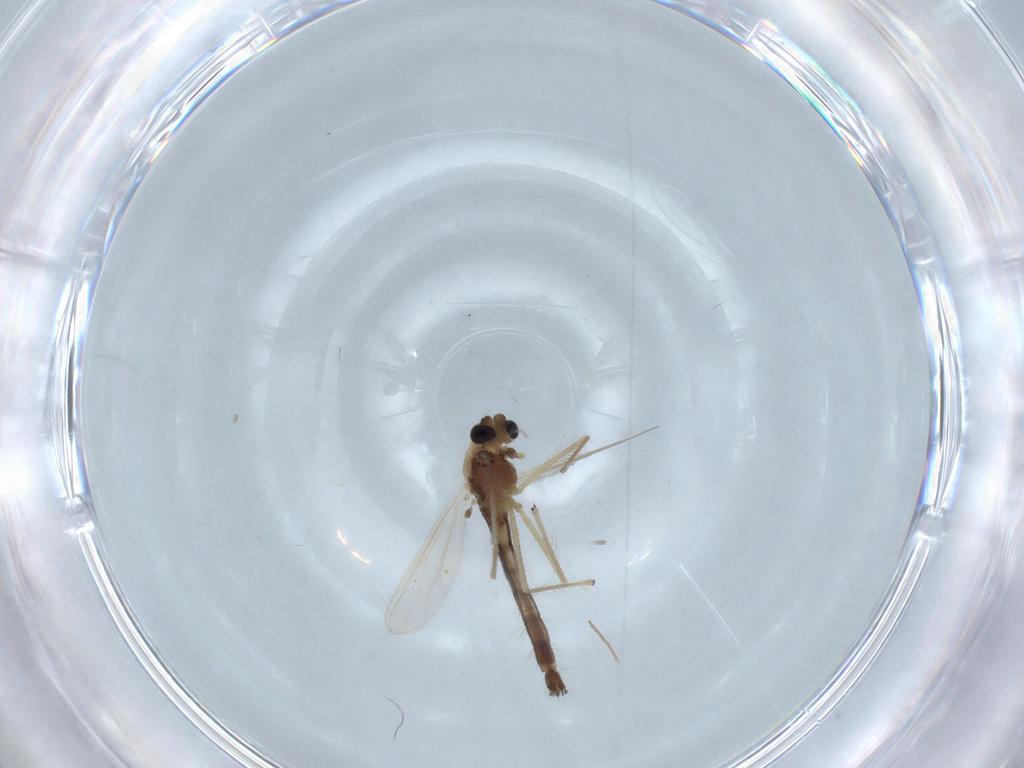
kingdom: Animalia
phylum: Arthropoda
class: Insecta
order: Diptera
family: Chironomidae
